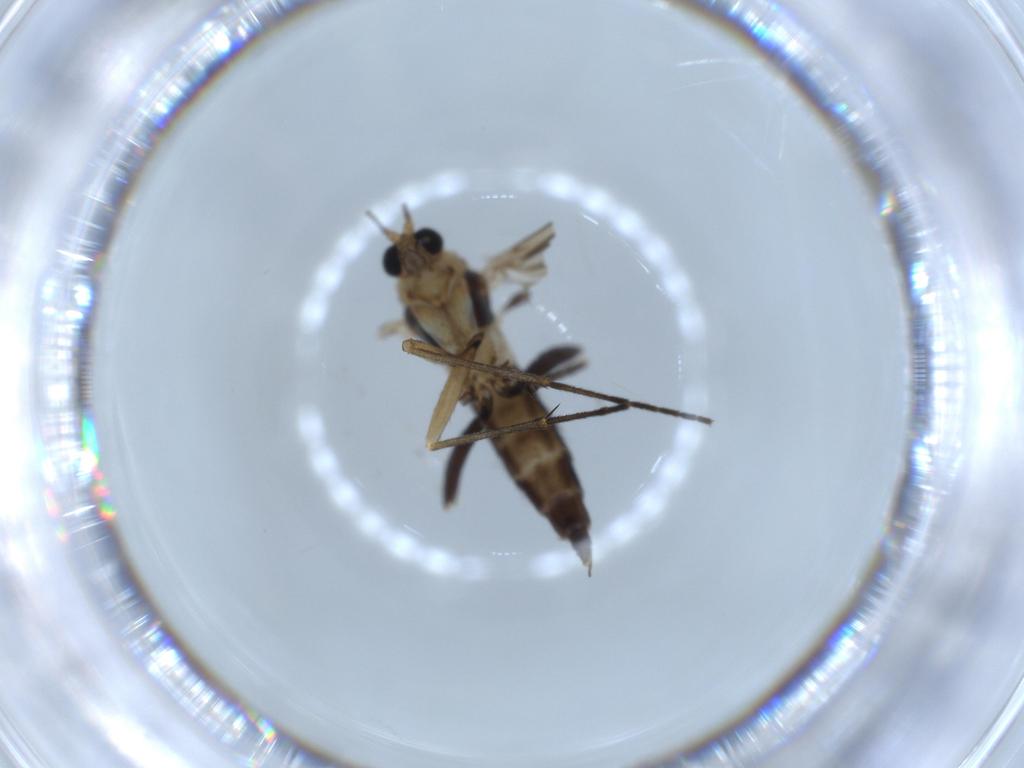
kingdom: Animalia
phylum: Arthropoda
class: Insecta
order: Diptera
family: Sciaridae
